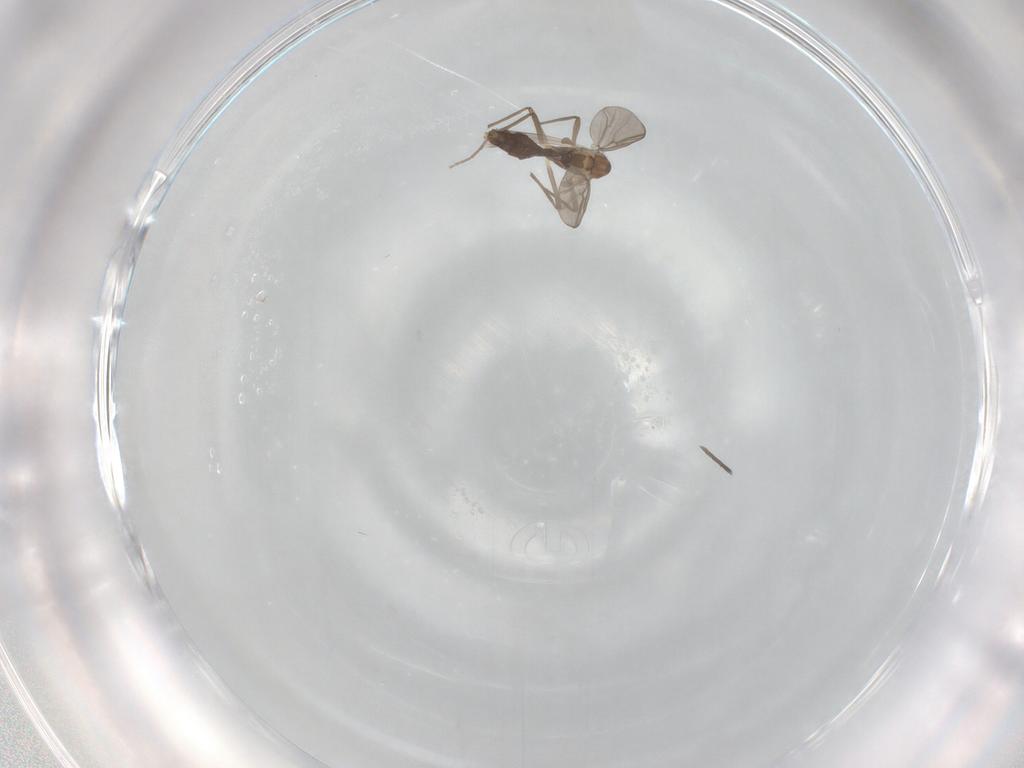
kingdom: Animalia
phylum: Arthropoda
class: Insecta
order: Diptera
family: Chironomidae
